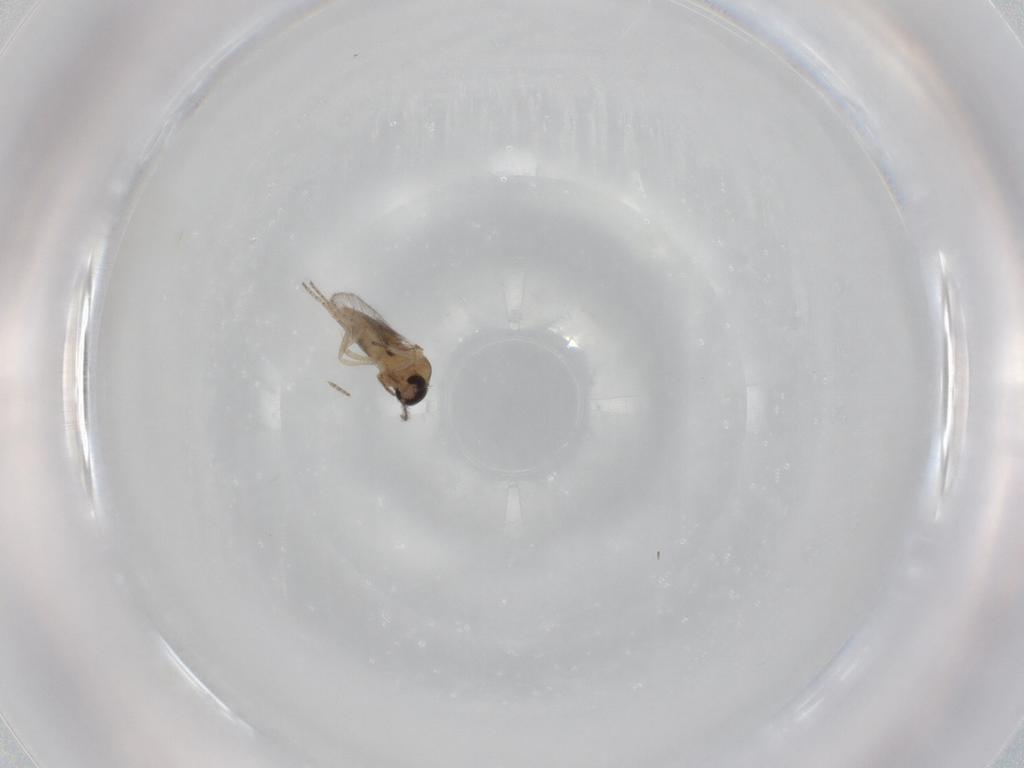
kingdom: Animalia
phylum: Arthropoda
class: Insecta
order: Diptera
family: Ceratopogonidae
